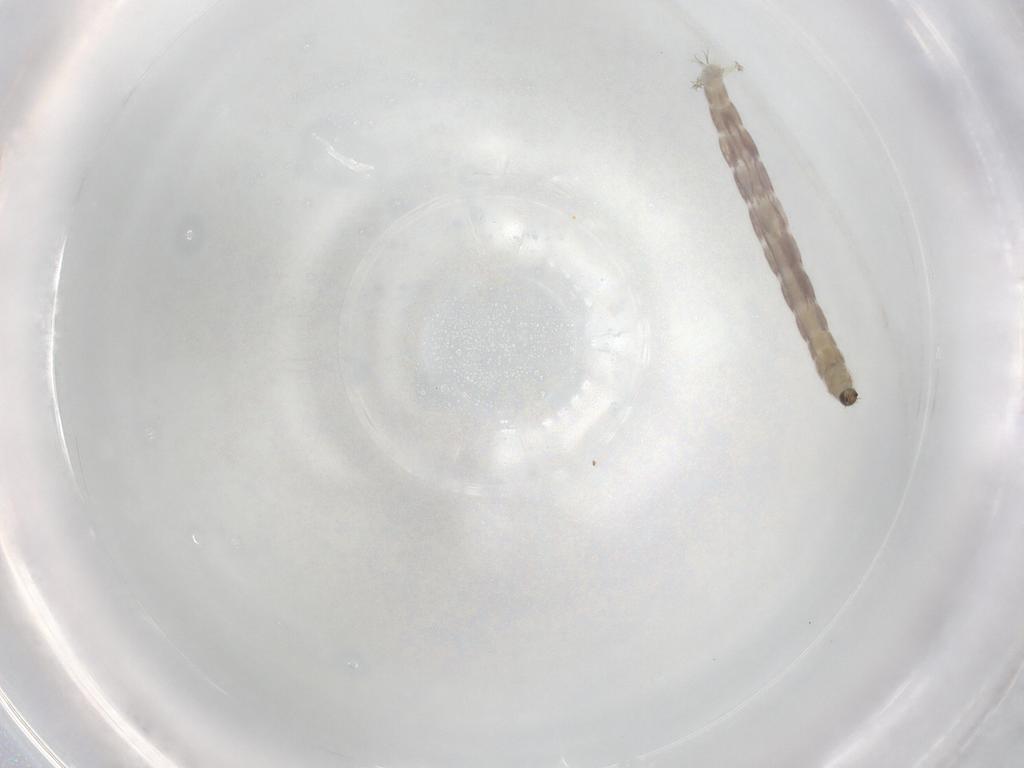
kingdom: Animalia
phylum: Arthropoda
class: Insecta
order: Diptera
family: Chironomidae
